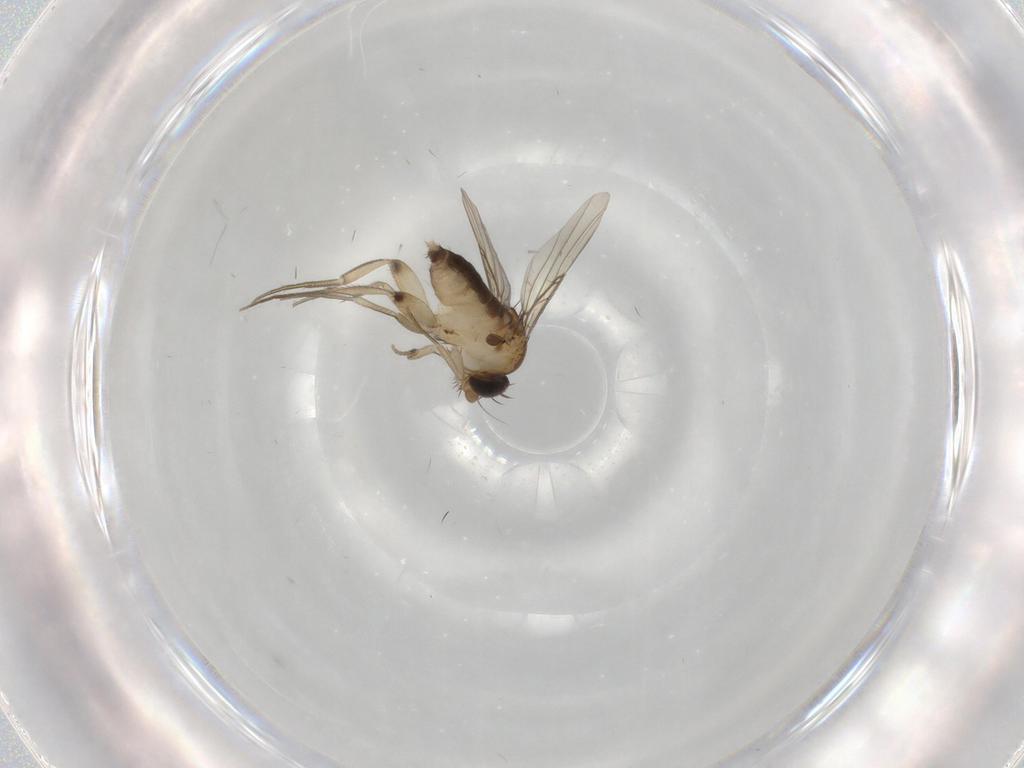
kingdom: Animalia
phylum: Arthropoda
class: Insecta
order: Diptera
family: Phoridae
